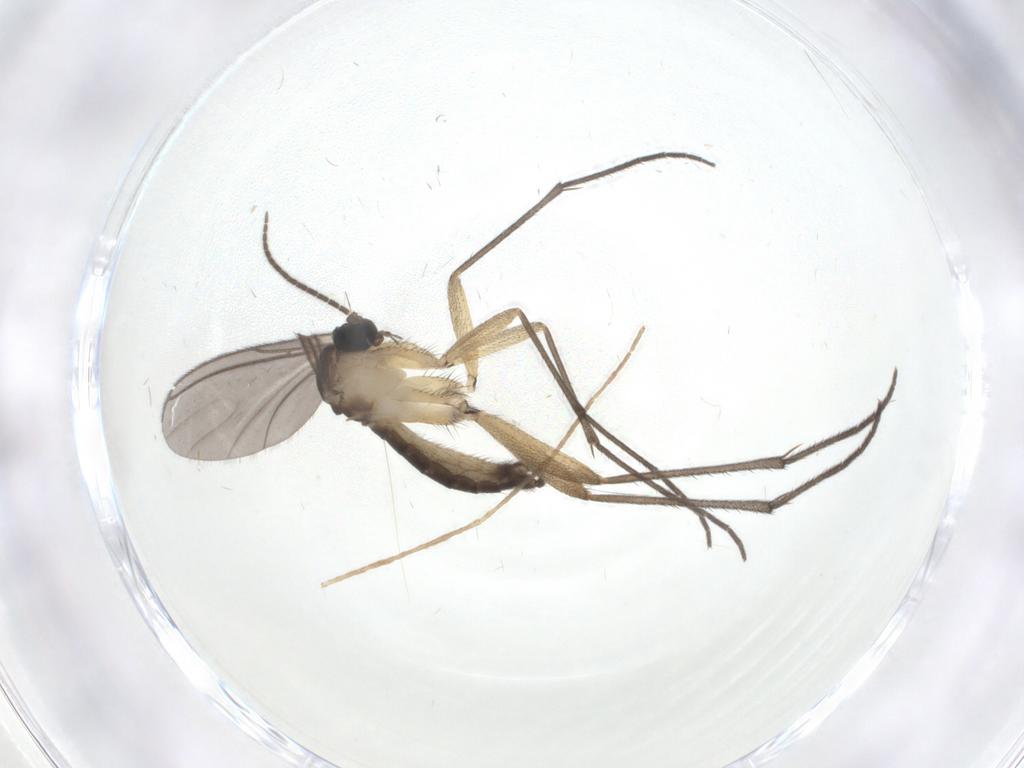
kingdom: Animalia
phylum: Arthropoda
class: Insecta
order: Diptera
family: Sciaridae
